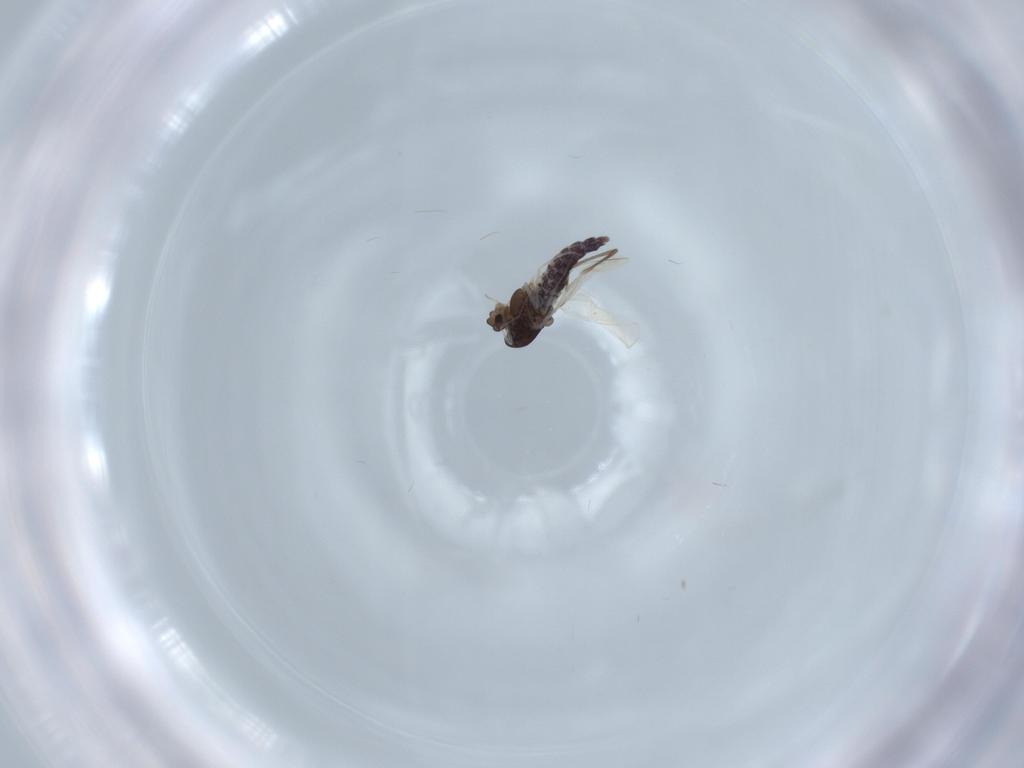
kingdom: Animalia
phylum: Arthropoda
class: Insecta
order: Diptera
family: Chironomidae
